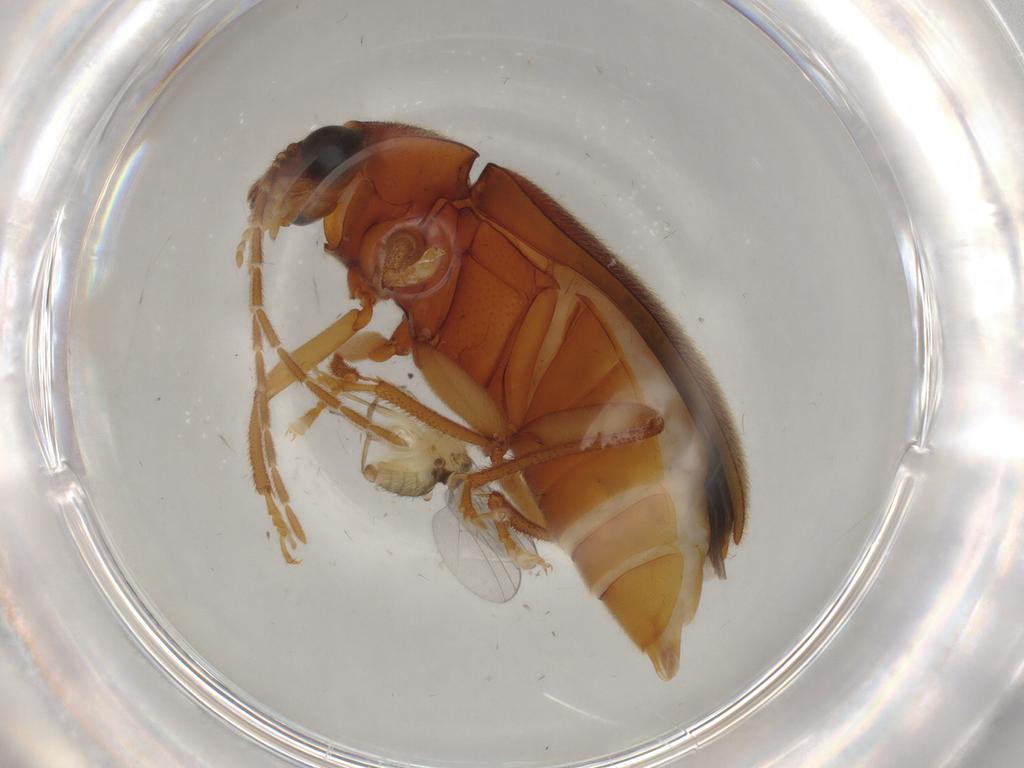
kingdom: Animalia
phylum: Arthropoda
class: Insecta
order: Coleoptera
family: Ptilodactylidae
